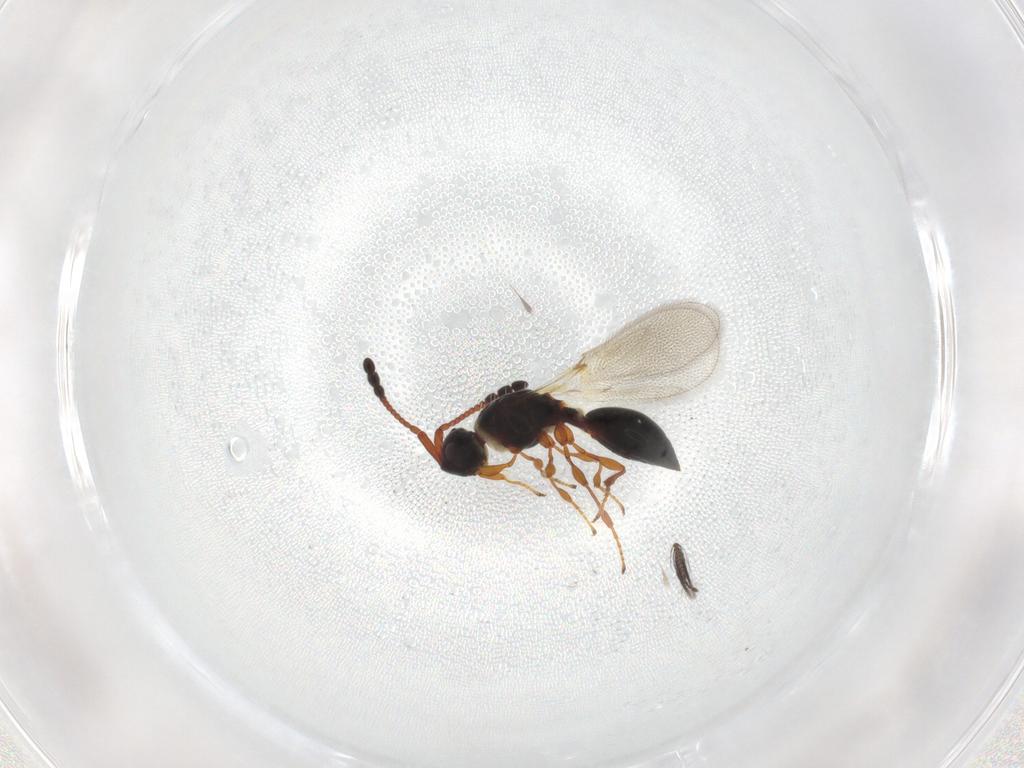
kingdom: Animalia
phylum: Arthropoda
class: Insecta
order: Hymenoptera
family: Diapriidae
